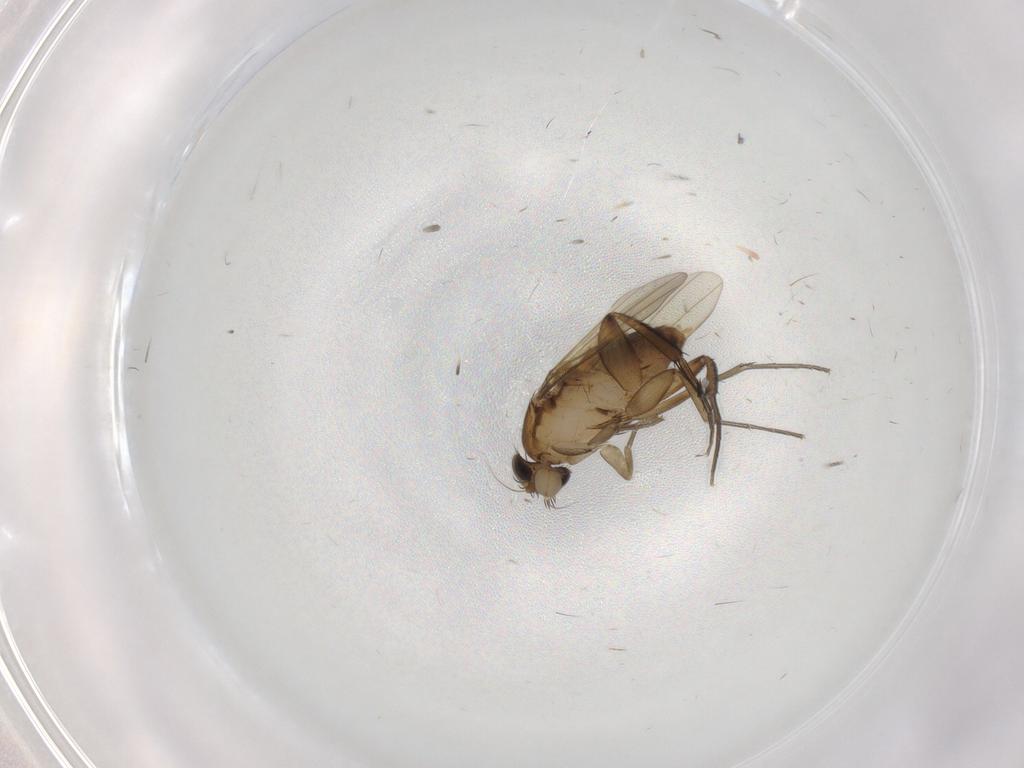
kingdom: Animalia
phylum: Arthropoda
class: Insecta
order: Diptera
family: Phoridae
